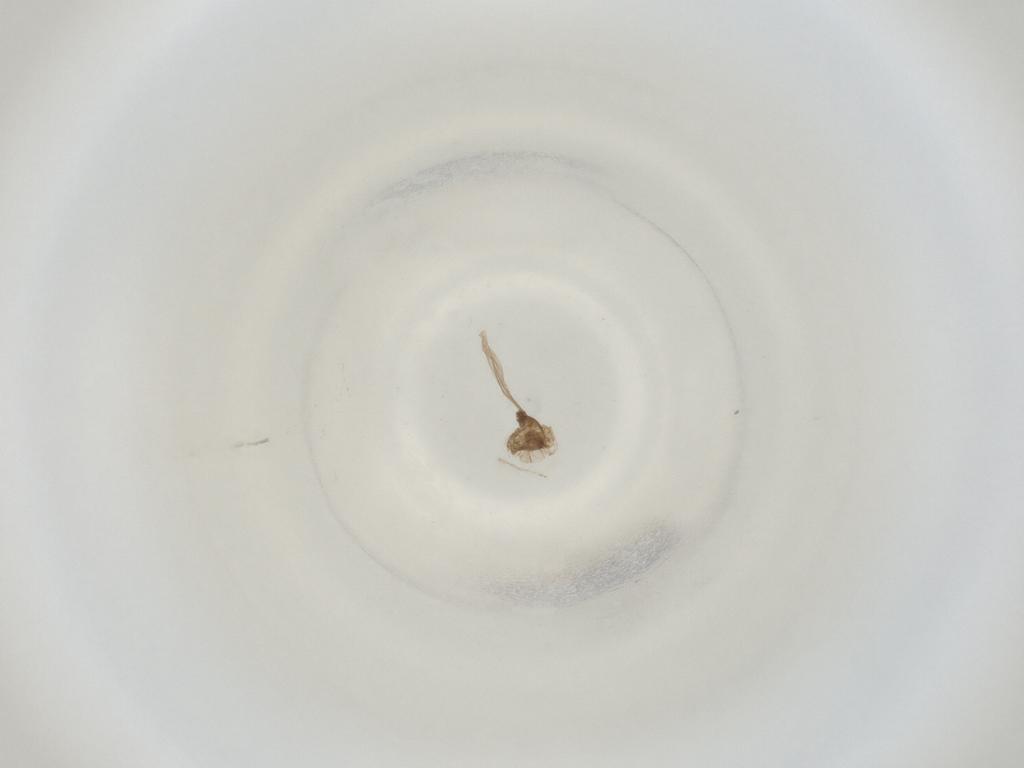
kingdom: Animalia
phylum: Arthropoda
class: Insecta
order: Diptera
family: Cecidomyiidae
